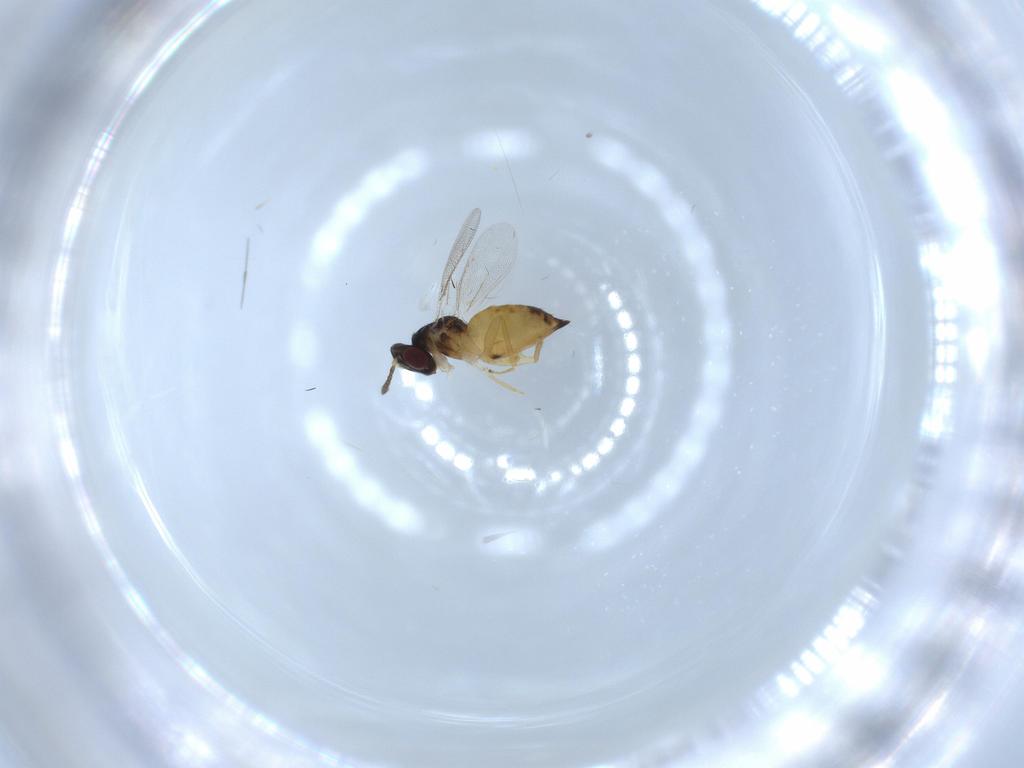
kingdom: Animalia
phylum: Arthropoda
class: Insecta
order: Hymenoptera
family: Eulophidae
